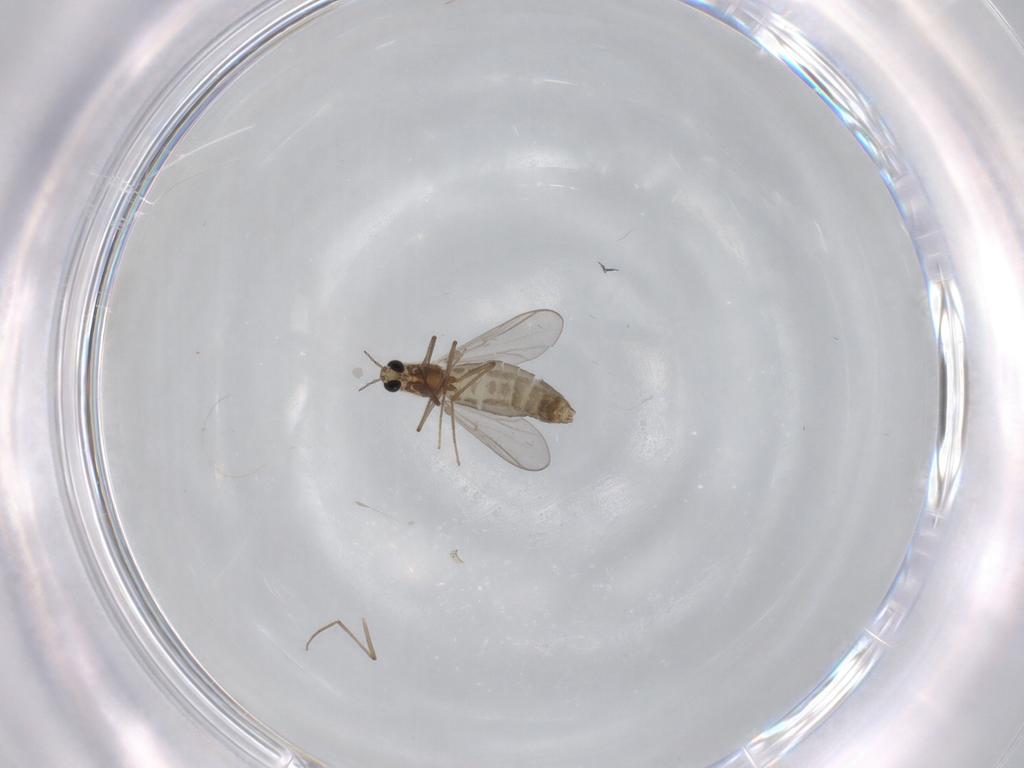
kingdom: Animalia
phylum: Arthropoda
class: Insecta
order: Diptera
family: Chironomidae
